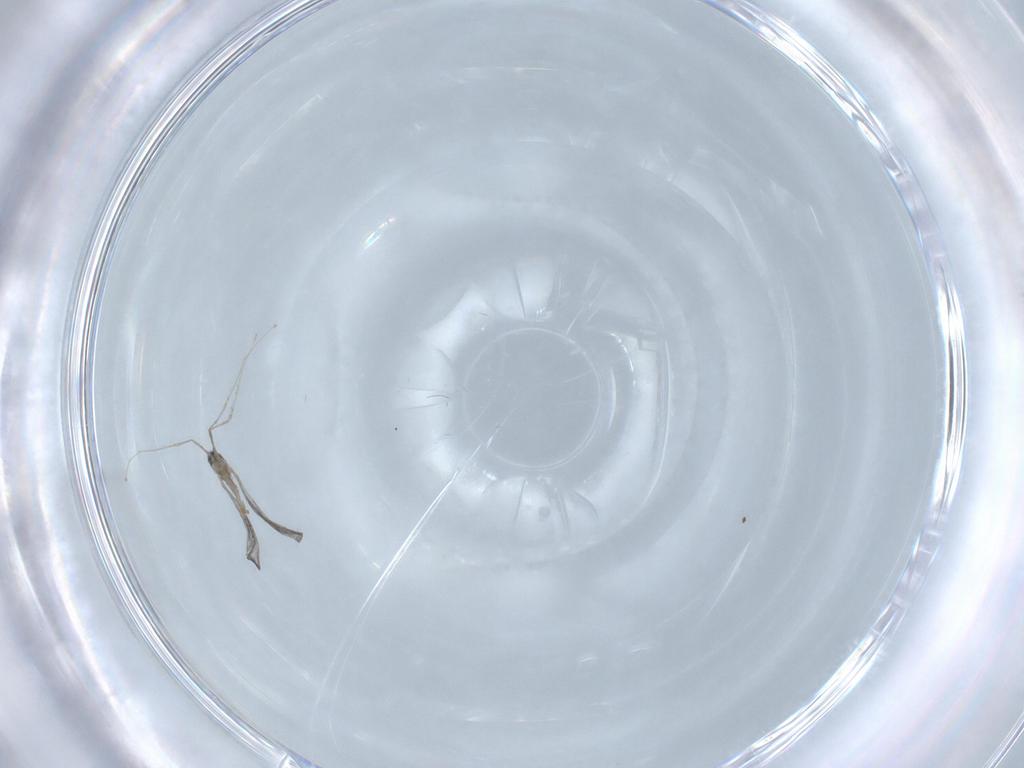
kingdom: Animalia
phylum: Arthropoda
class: Insecta
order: Diptera
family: Cecidomyiidae
